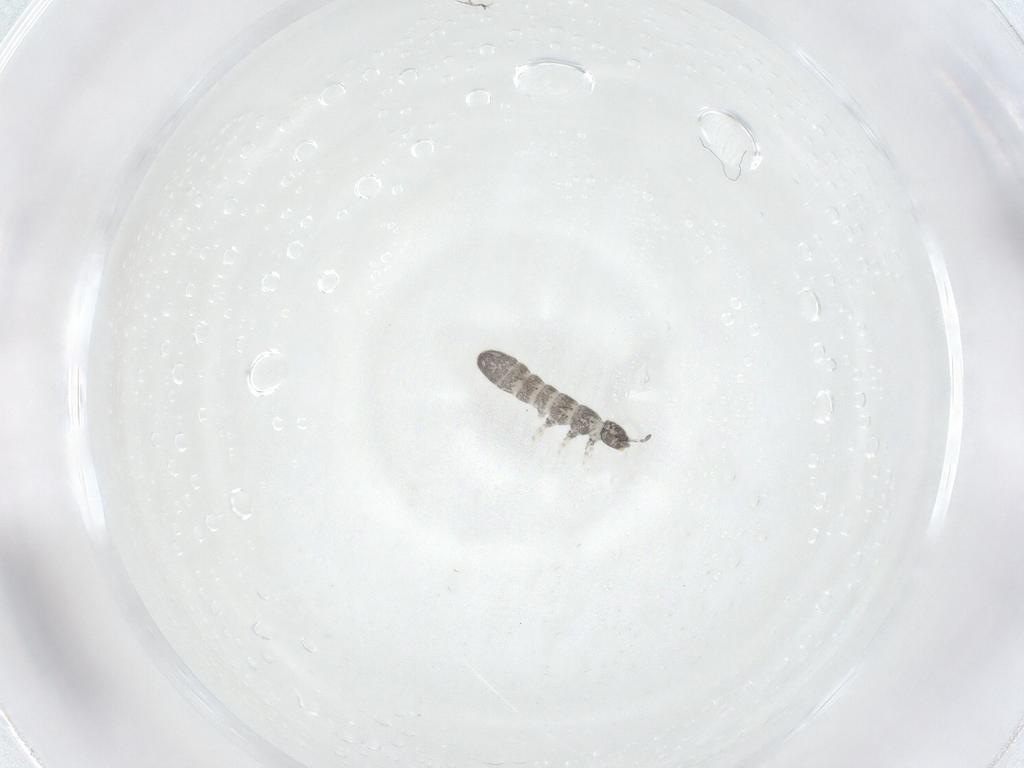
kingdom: Animalia
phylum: Arthropoda
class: Collembola
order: Entomobryomorpha
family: Isotomidae
